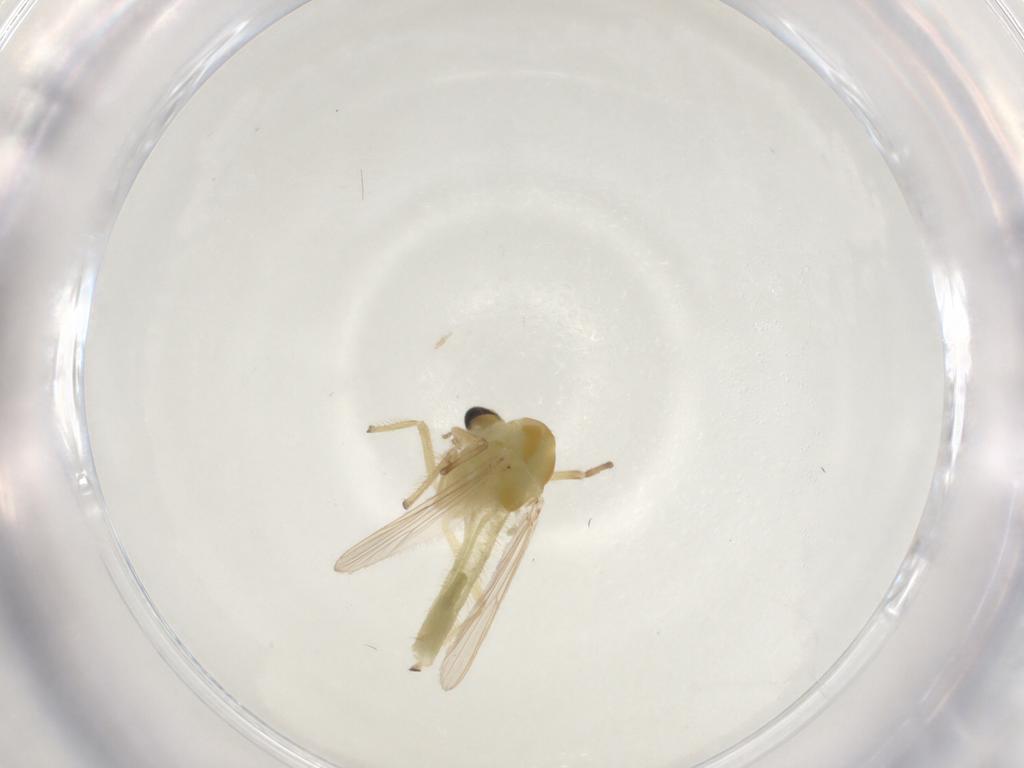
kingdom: Animalia
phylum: Arthropoda
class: Insecta
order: Diptera
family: Chironomidae
